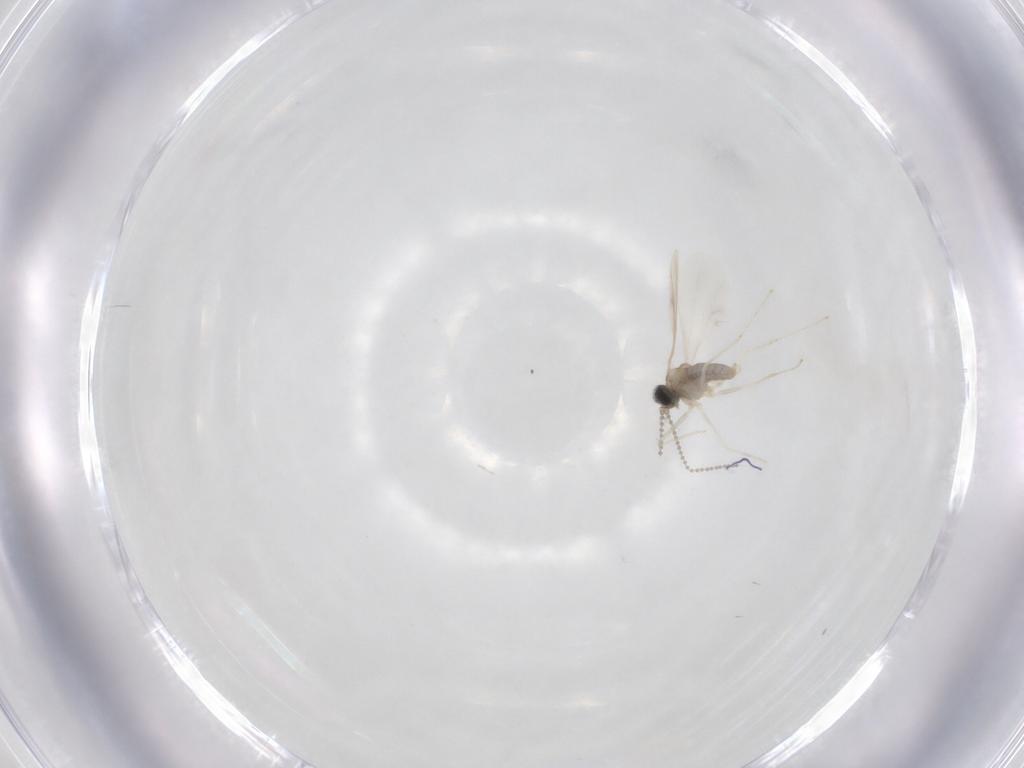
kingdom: Animalia
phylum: Arthropoda
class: Insecta
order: Diptera
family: Cecidomyiidae
